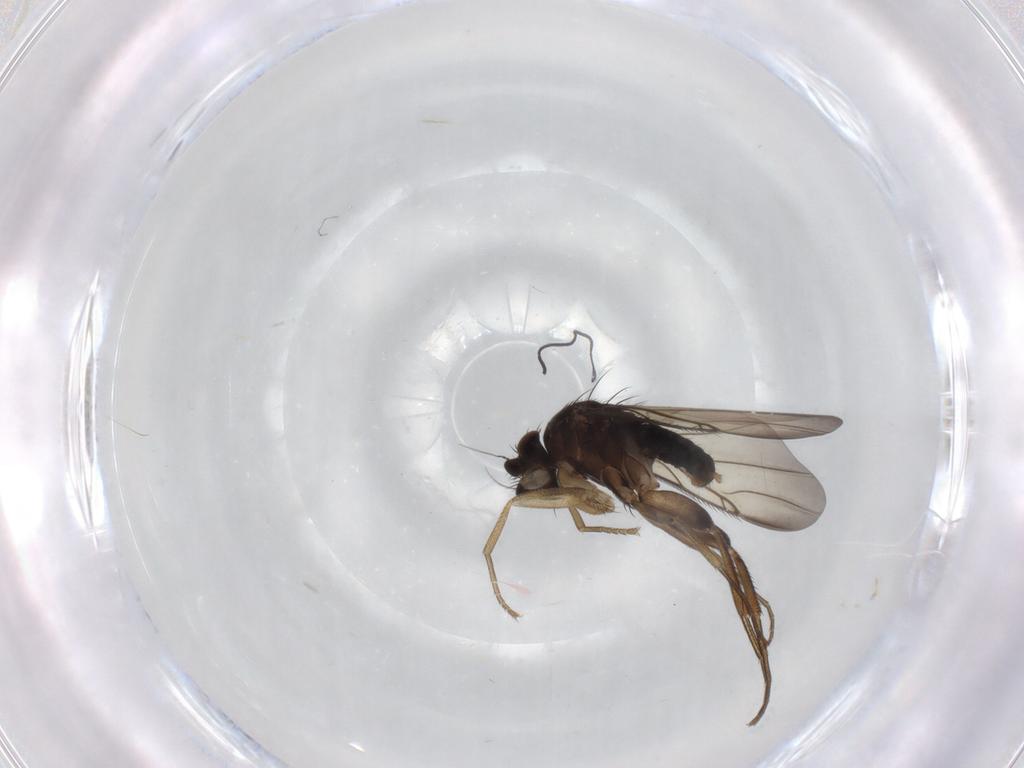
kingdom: Animalia
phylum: Arthropoda
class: Insecta
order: Diptera
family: Phoridae
